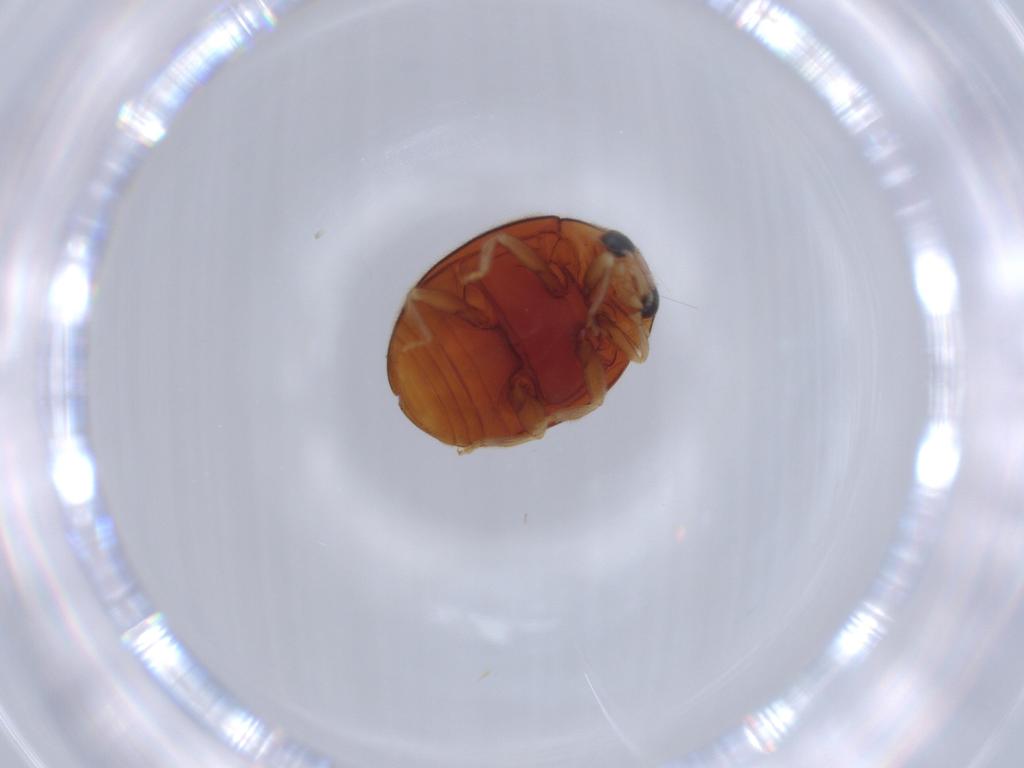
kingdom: Animalia
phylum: Arthropoda
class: Insecta
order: Coleoptera
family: Coccinellidae
